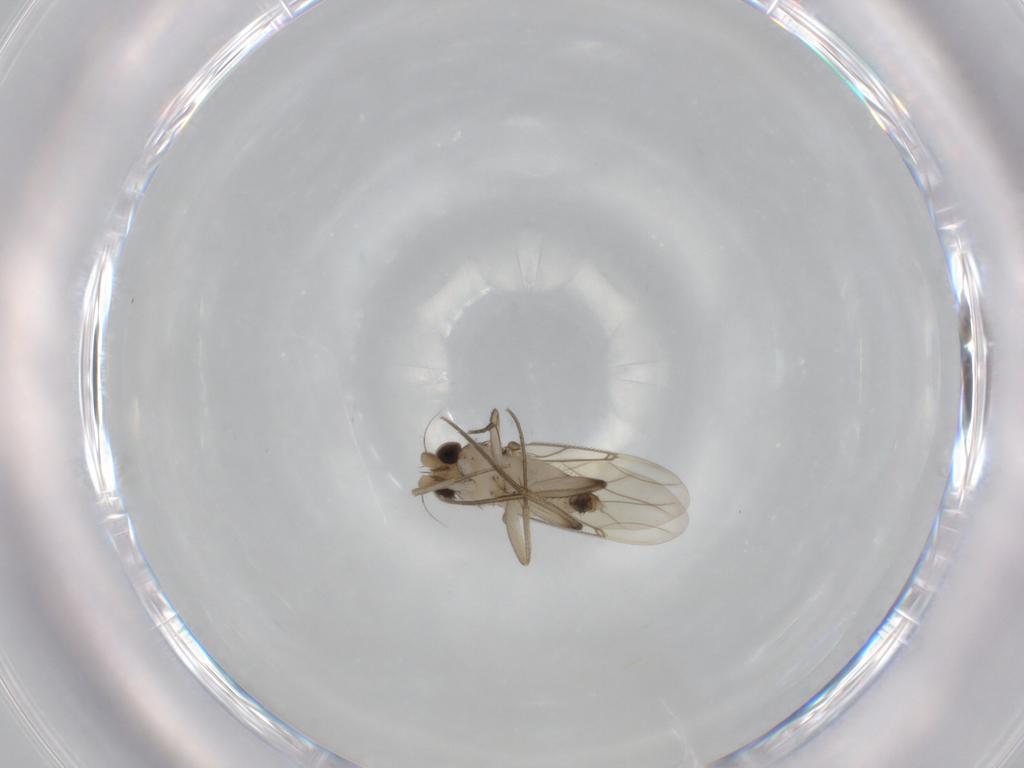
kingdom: Animalia
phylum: Arthropoda
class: Insecta
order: Diptera
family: Phoridae
